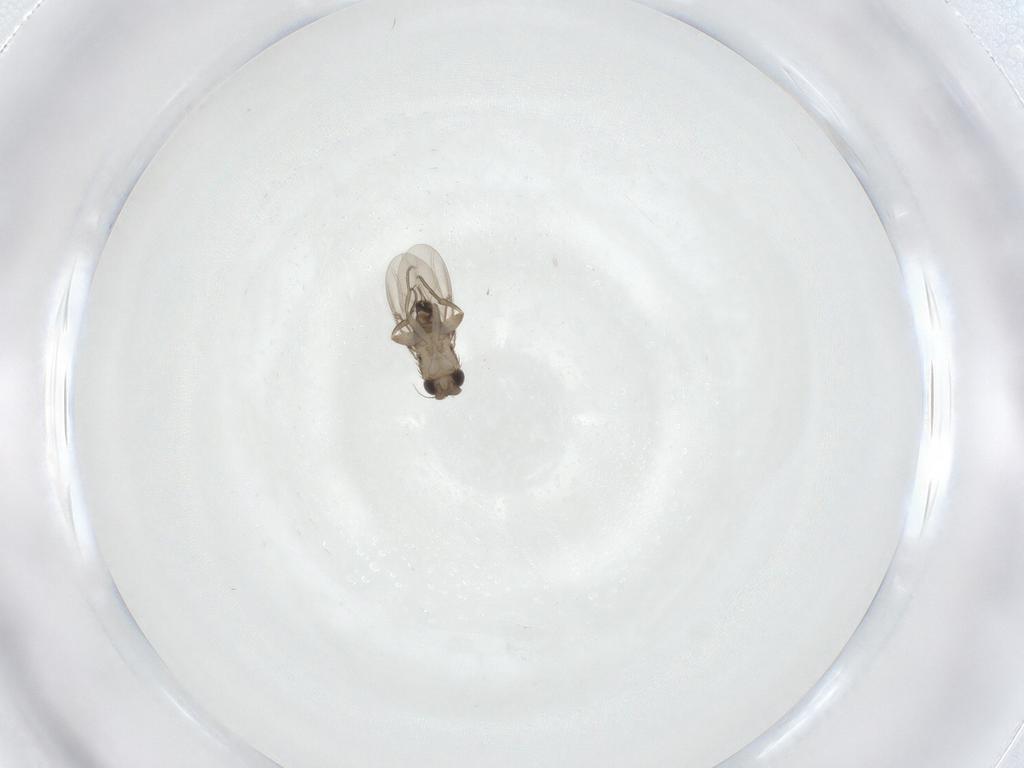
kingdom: Animalia
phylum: Arthropoda
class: Insecta
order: Diptera
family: Phoridae
